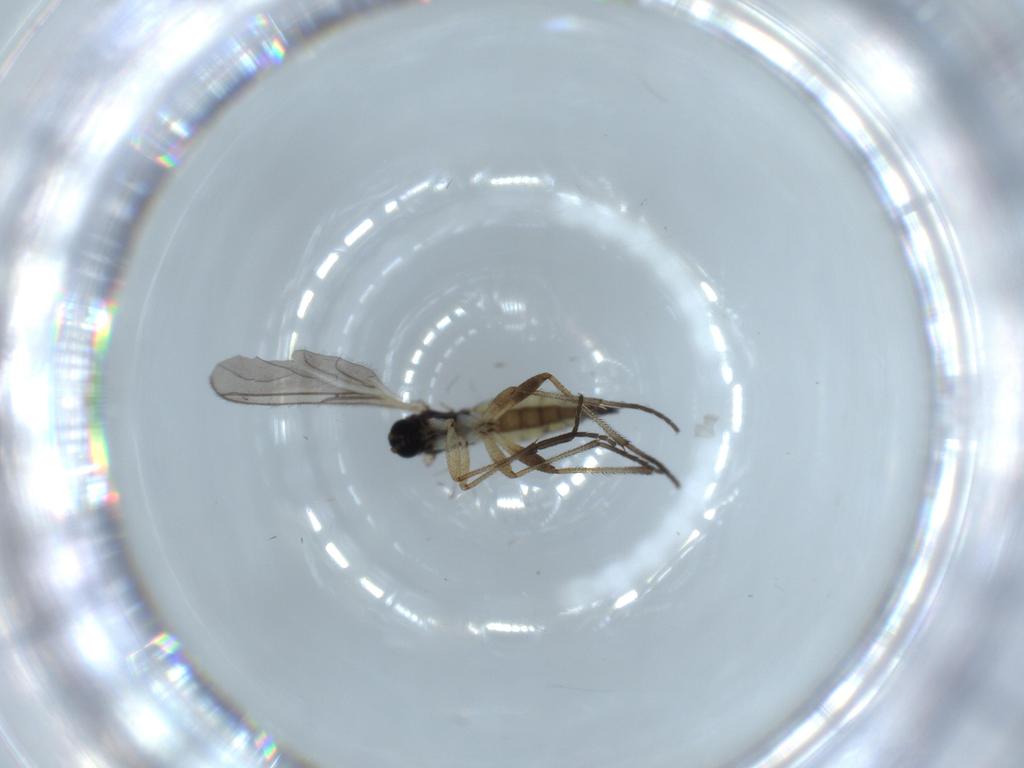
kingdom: Animalia
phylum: Arthropoda
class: Insecta
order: Diptera
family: Sciaridae
